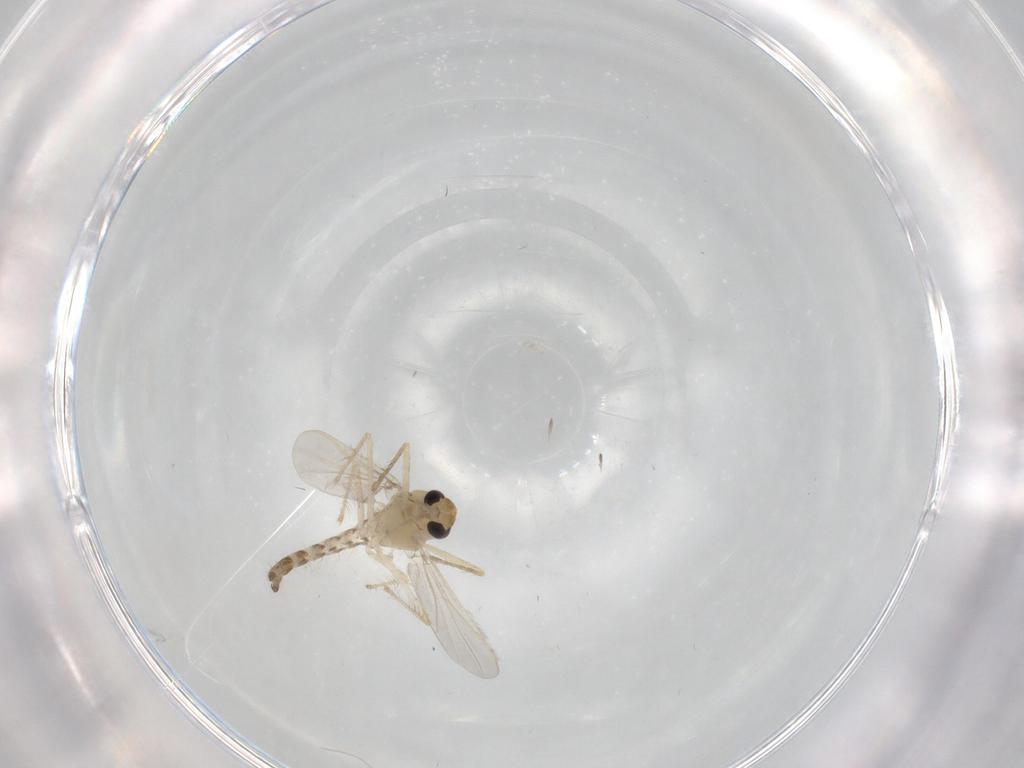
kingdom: Animalia
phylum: Arthropoda
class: Insecta
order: Diptera
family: Chironomidae
